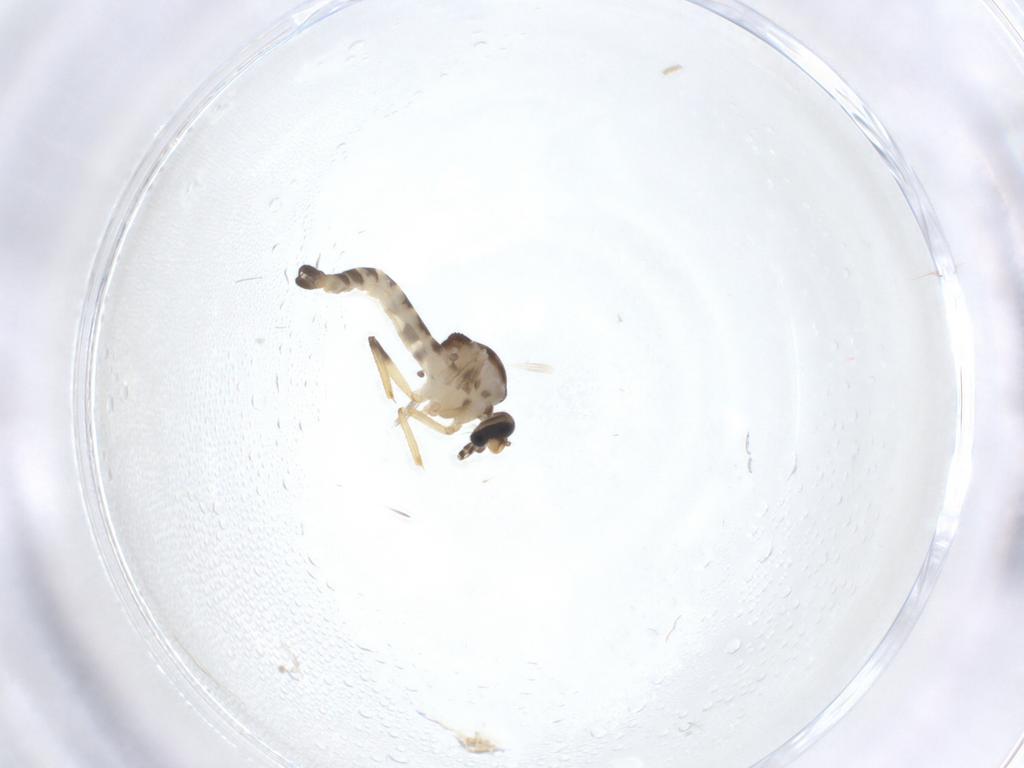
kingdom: Animalia
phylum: Arthropoda
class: Insecta
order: Diptera
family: Ceratopogonidae
